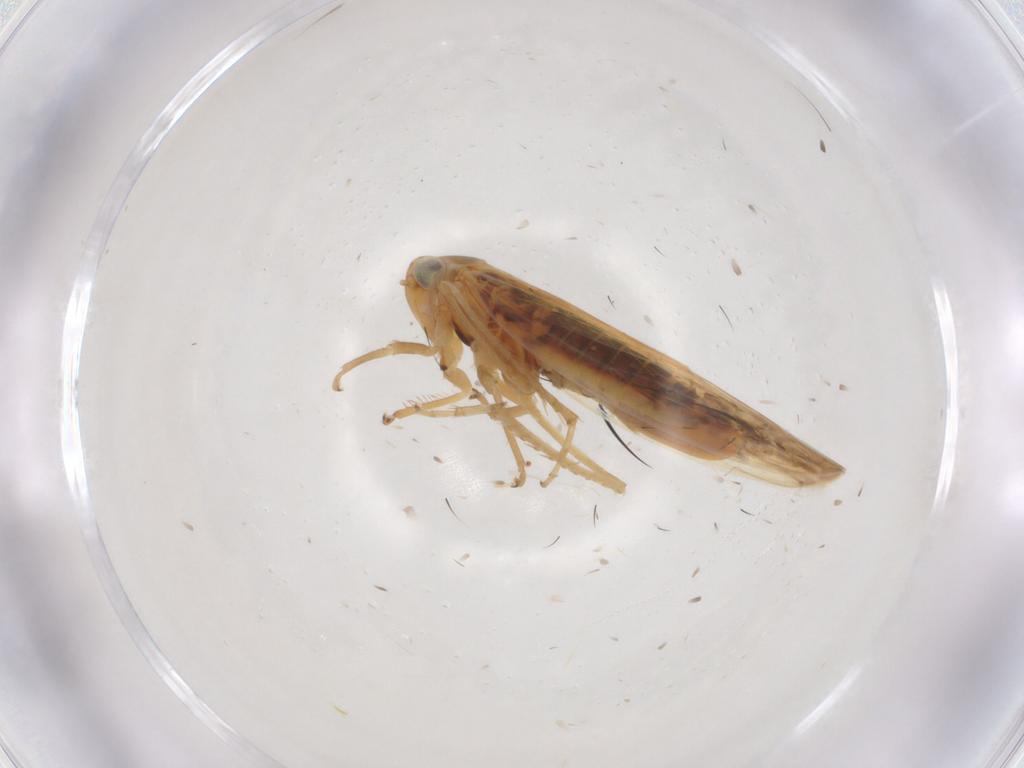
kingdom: Animalia
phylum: Arthropoda
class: Insecta
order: Hemiptera
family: Cicadellidae
